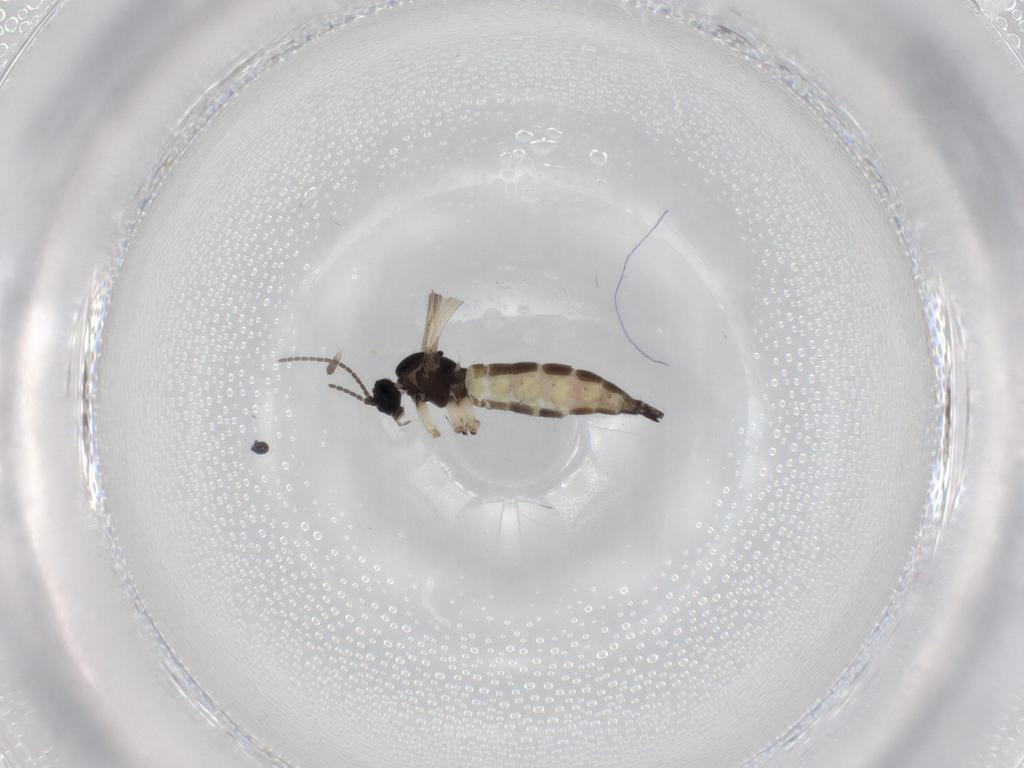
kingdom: Animalia
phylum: Arthropoda
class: Insecta
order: Diptera
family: Sciaridae
